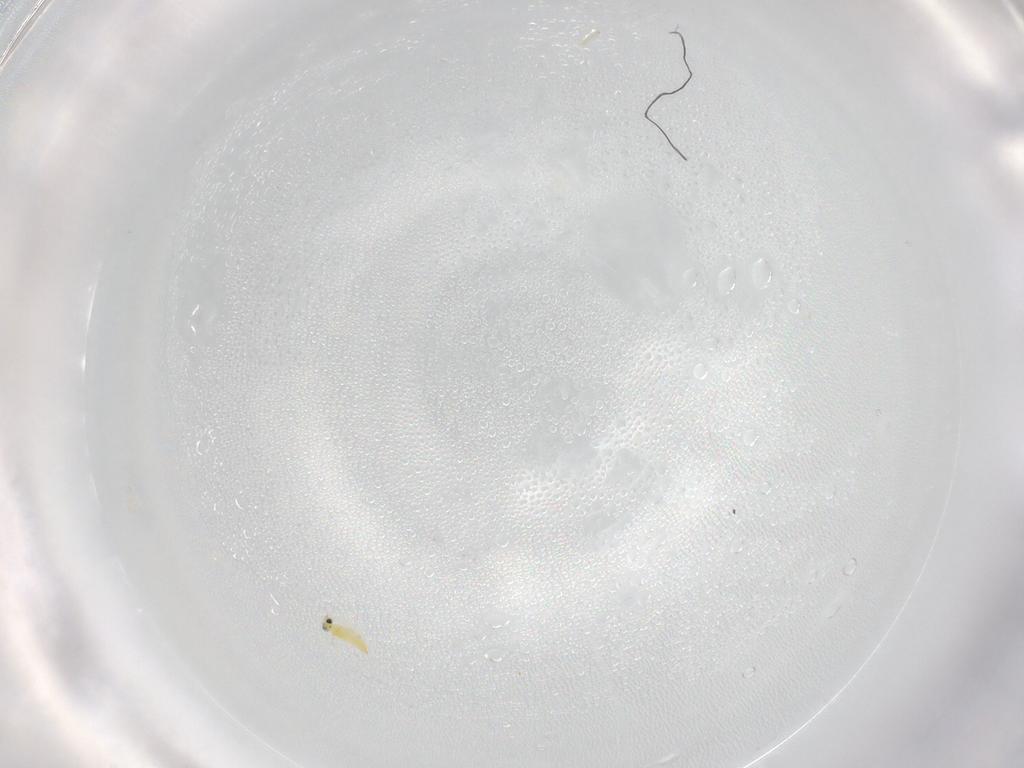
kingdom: Animalia
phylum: Arthropoda
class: Insecta
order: Hymenoptera
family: Trichogrammatidae
